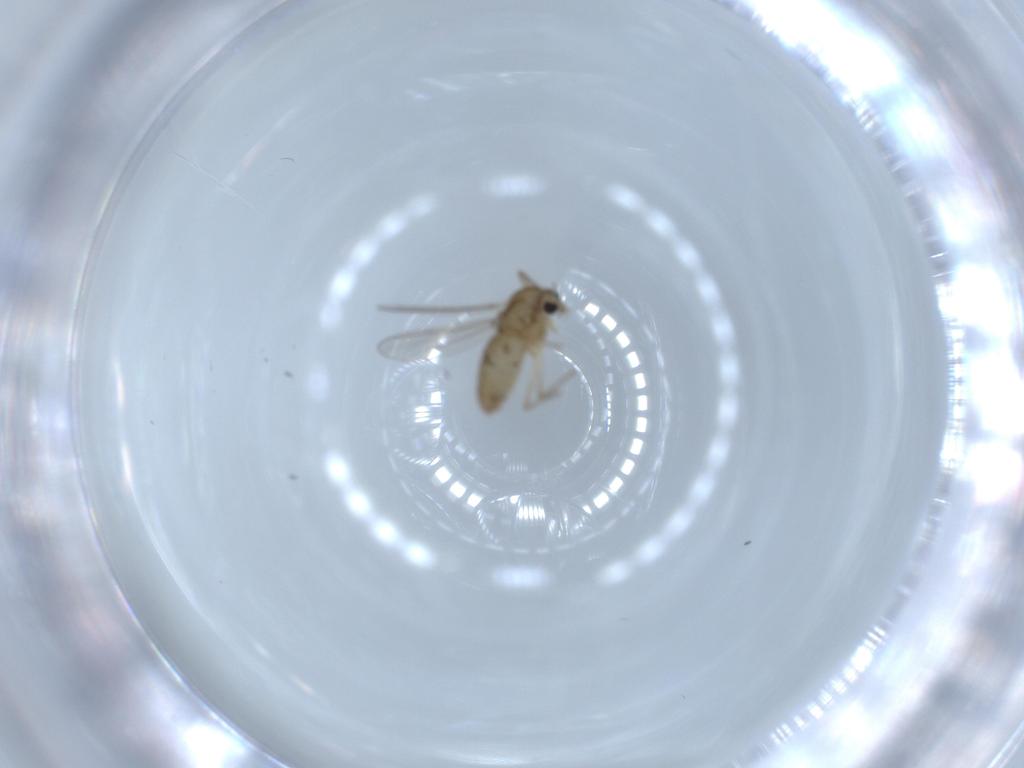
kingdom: Animalia
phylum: Arthropoda
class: Insecta
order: Diptera
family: Chironomidae
